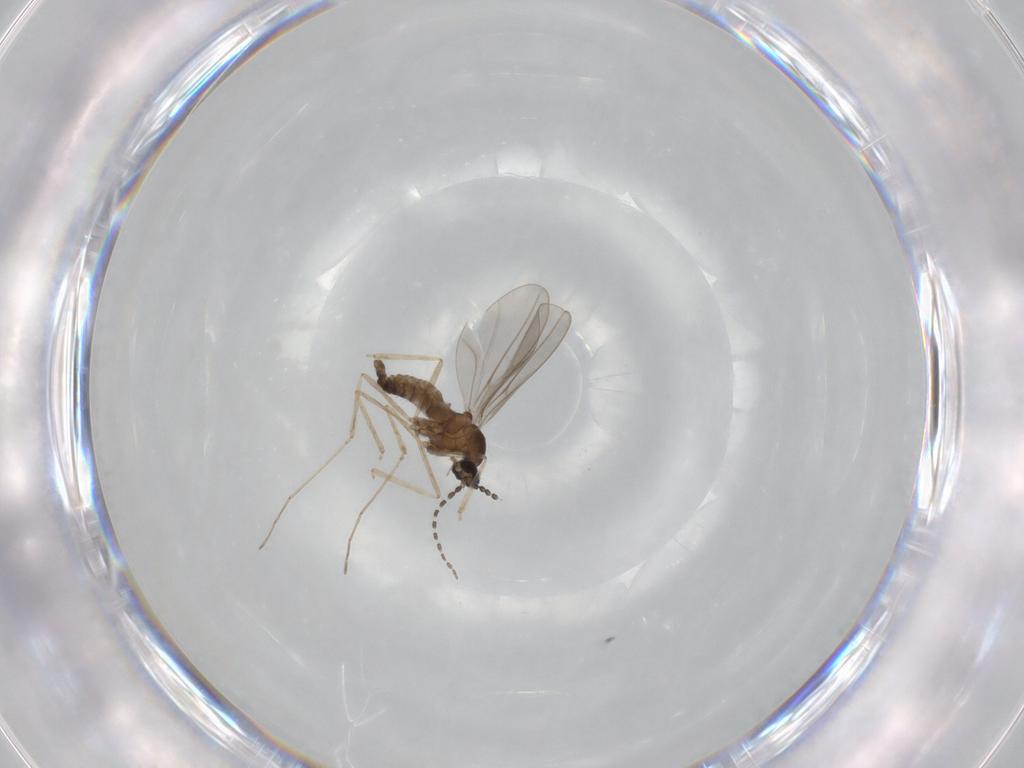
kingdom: Animalia
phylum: Arthropoda
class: Insecta
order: Diptera
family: Cecidomyiidae
